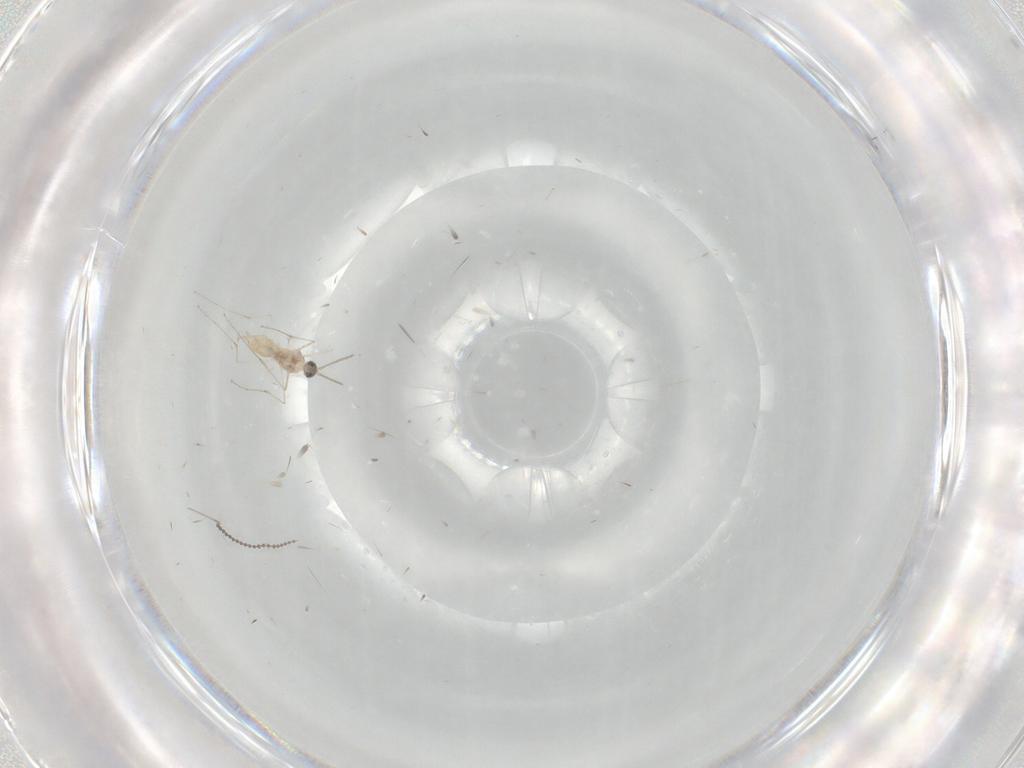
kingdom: Animalia
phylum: Arthropoda
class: Insecta
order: Diptera
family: Cecidomyiidae
